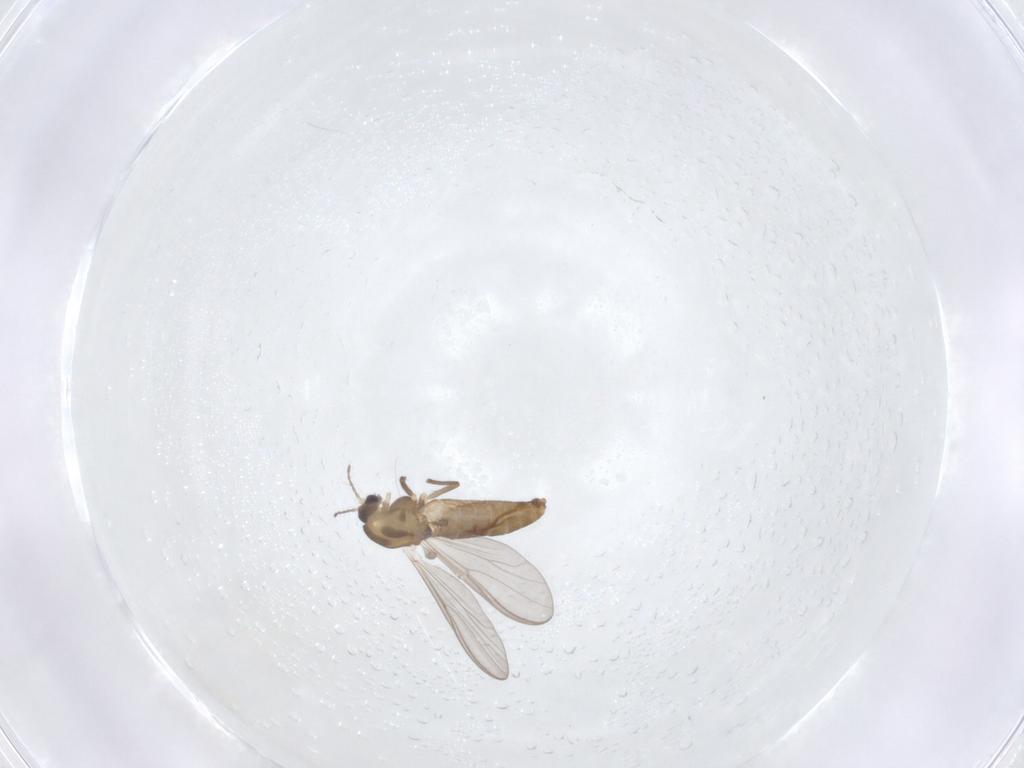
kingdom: Animalia
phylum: Arthropoda
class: Insecta
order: Diptera
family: Chironomidae
